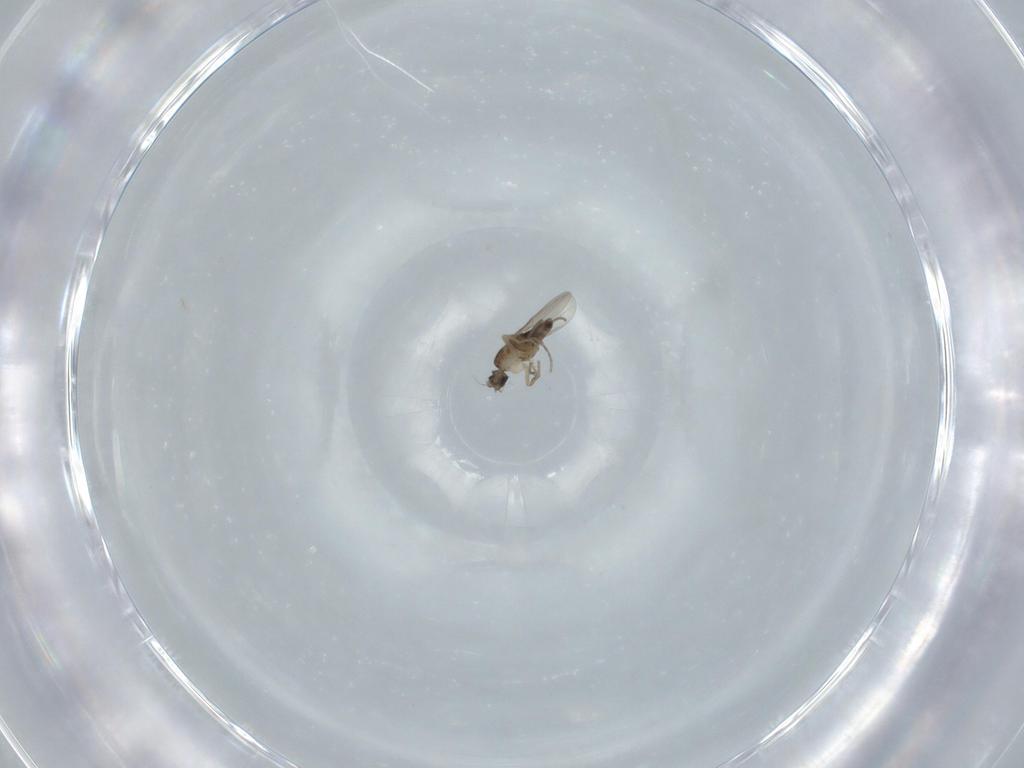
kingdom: Animalia
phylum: Arthropoda
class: Insecta
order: Diptera
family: Phoridae
